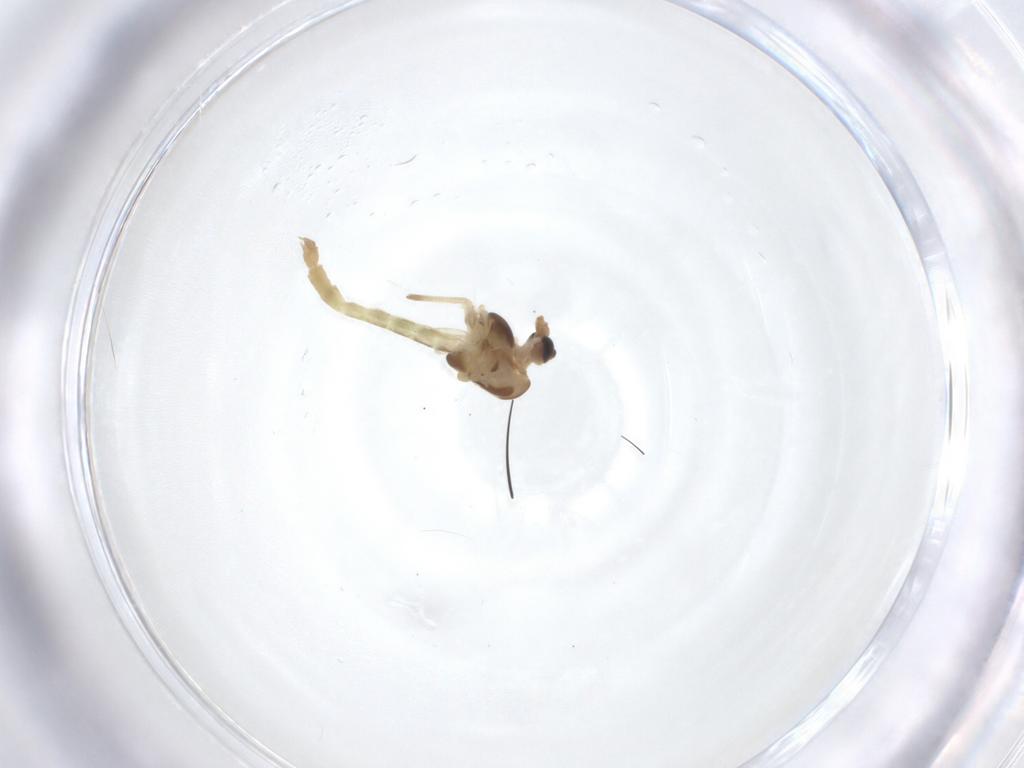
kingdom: Animalia
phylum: Arthropoda
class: Insecta
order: Diptera
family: Chironomidae
